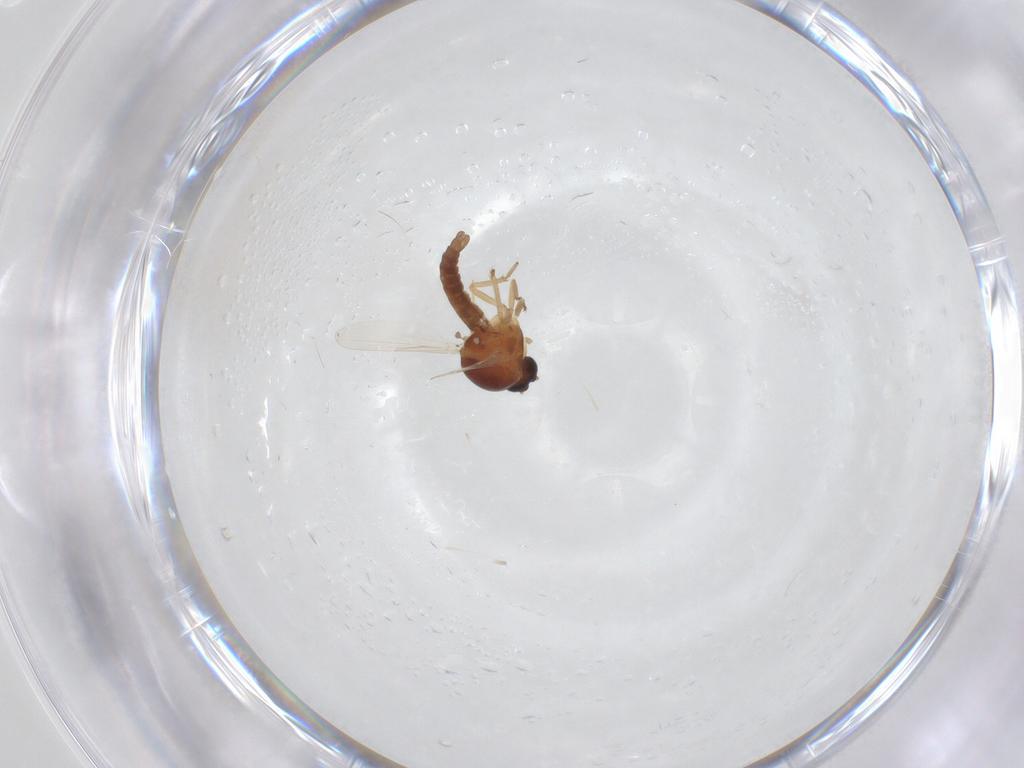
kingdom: Animalia
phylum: Arthropoda
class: Insecta
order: Diptera
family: Ceratopogonidae
